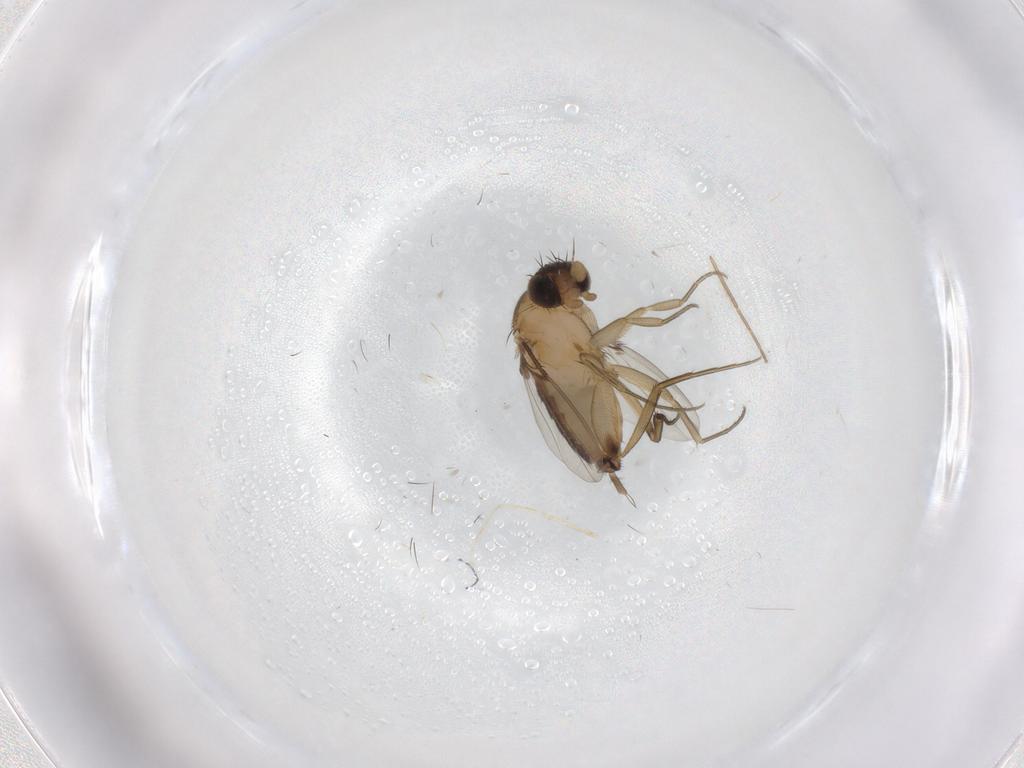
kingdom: Animalia
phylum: Arthropoda
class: Insecta
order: Diptera
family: Phoridae
